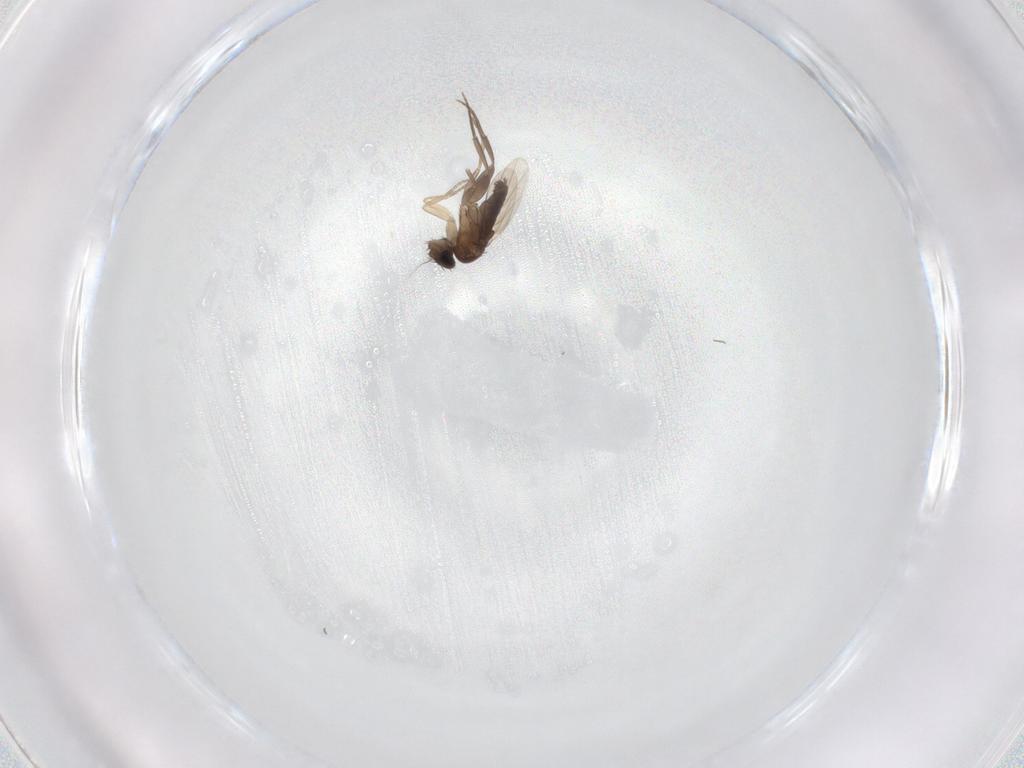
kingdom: Animalia
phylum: Arthropoda
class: Insecta
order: Diptera
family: Phoridae
